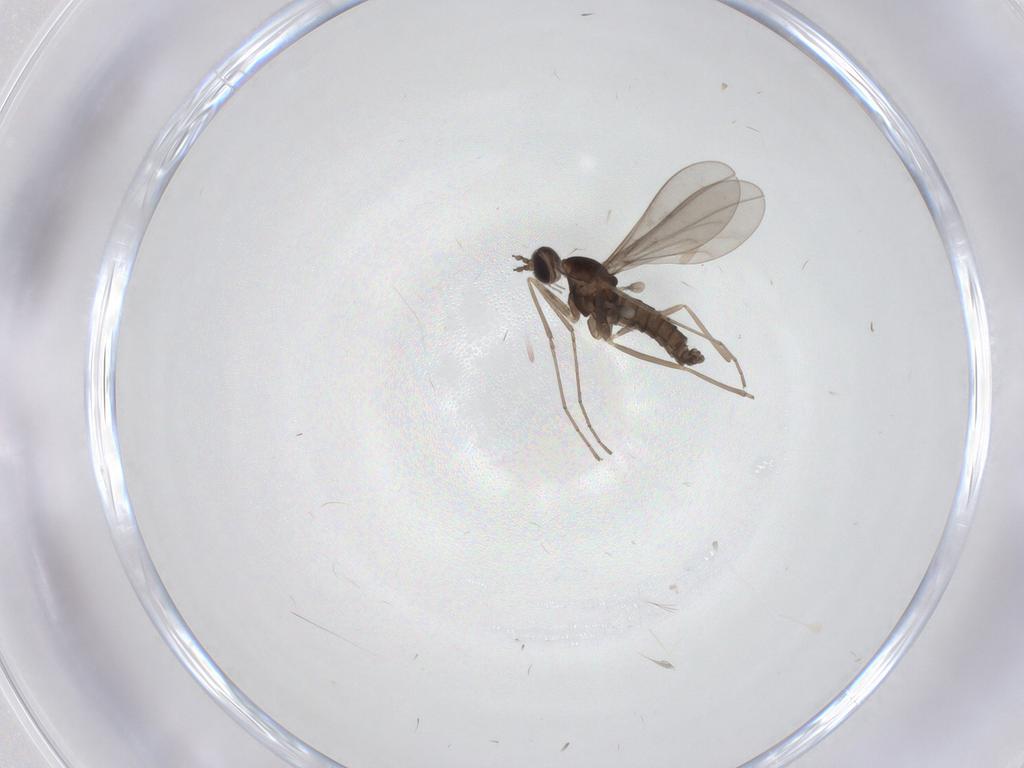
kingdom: Animalia
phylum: Arthropoda
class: Insecta
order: Diptera
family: Cecidomyiidae
